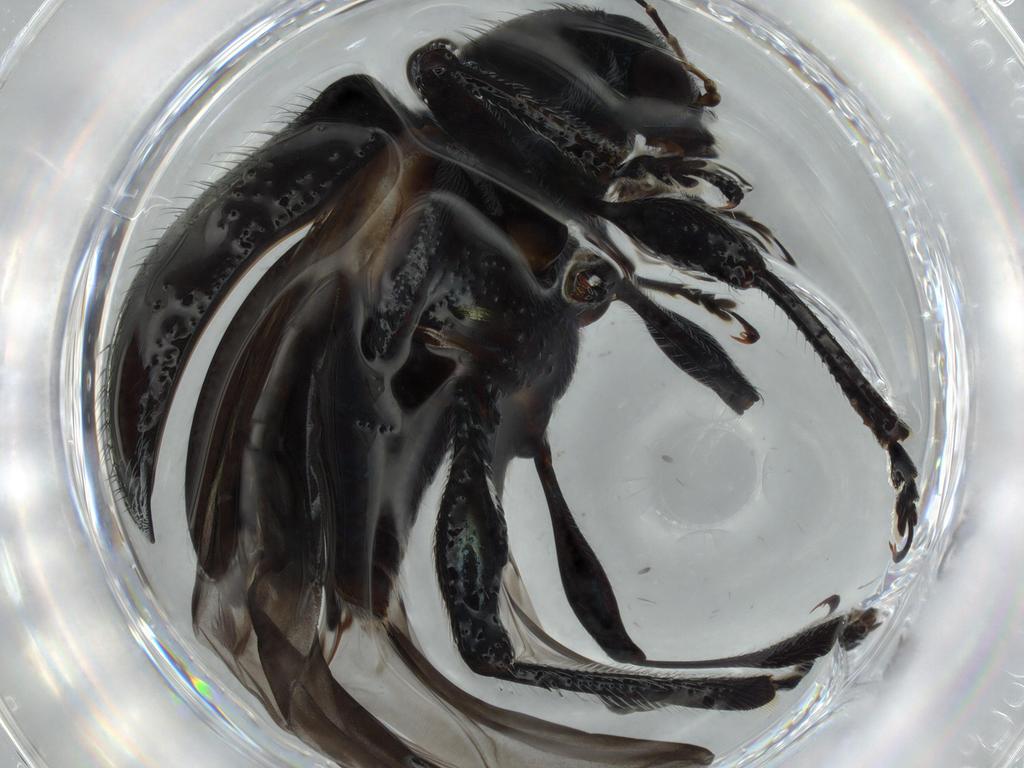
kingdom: Animalia
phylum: Arthropoda
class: Insecta
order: Coleoptera
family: Chrysomelidae
